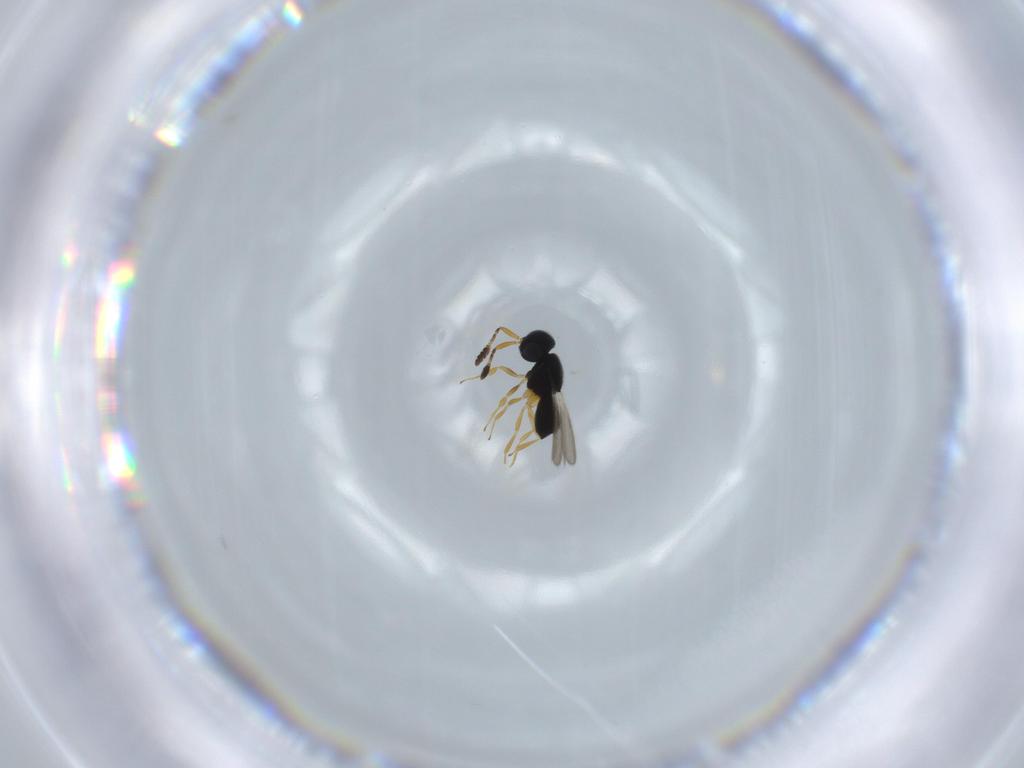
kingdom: Animalia
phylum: Arthropoda
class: Insecta
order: Hymenoptera
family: Scelionidae
